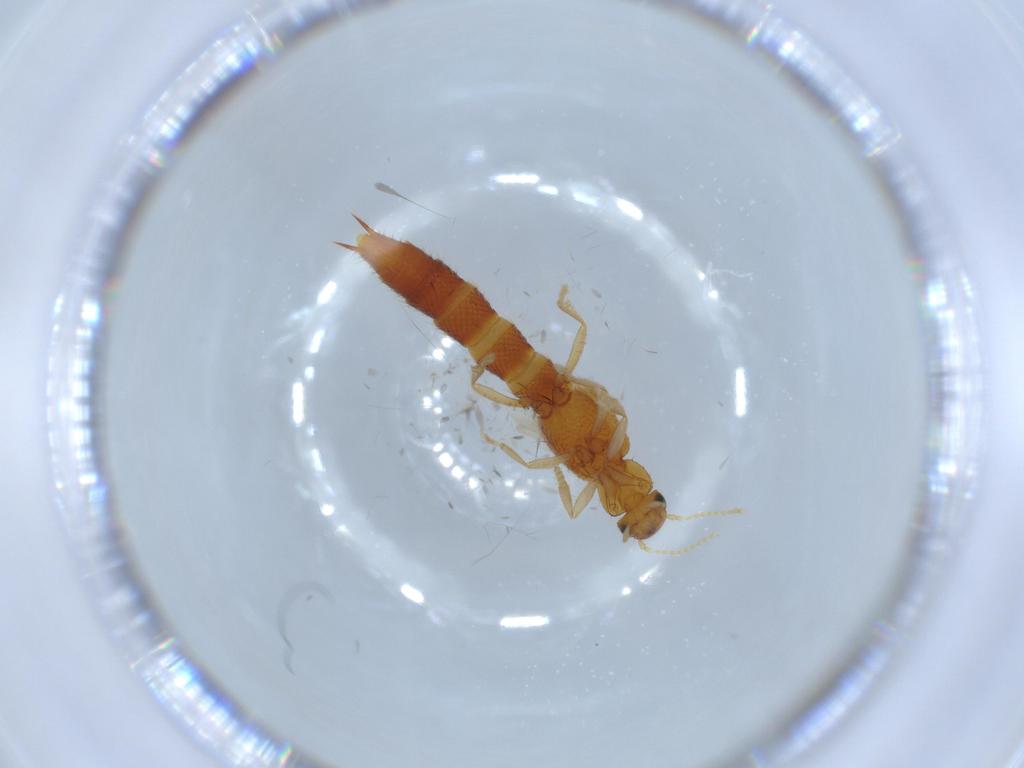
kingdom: Animalia
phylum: Arthropoda
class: Insecta
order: Coleoptera
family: Staphylinidae
